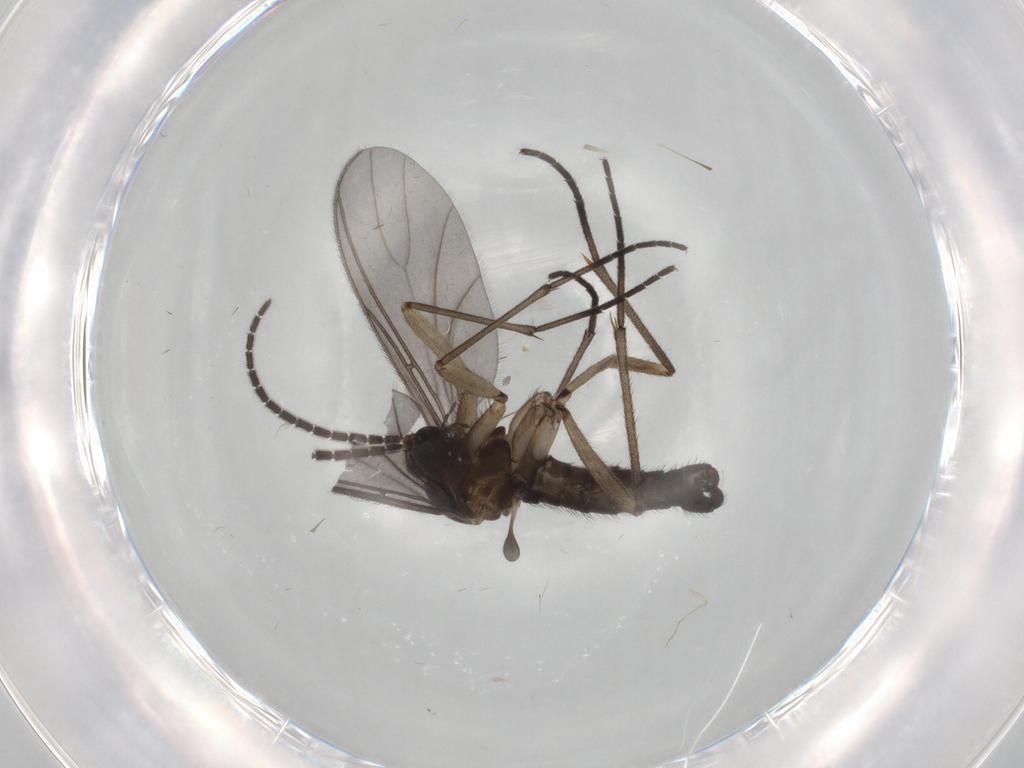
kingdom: Animalia
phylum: Arthropoda
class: Insecta
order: Diptera
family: Sciaridae
